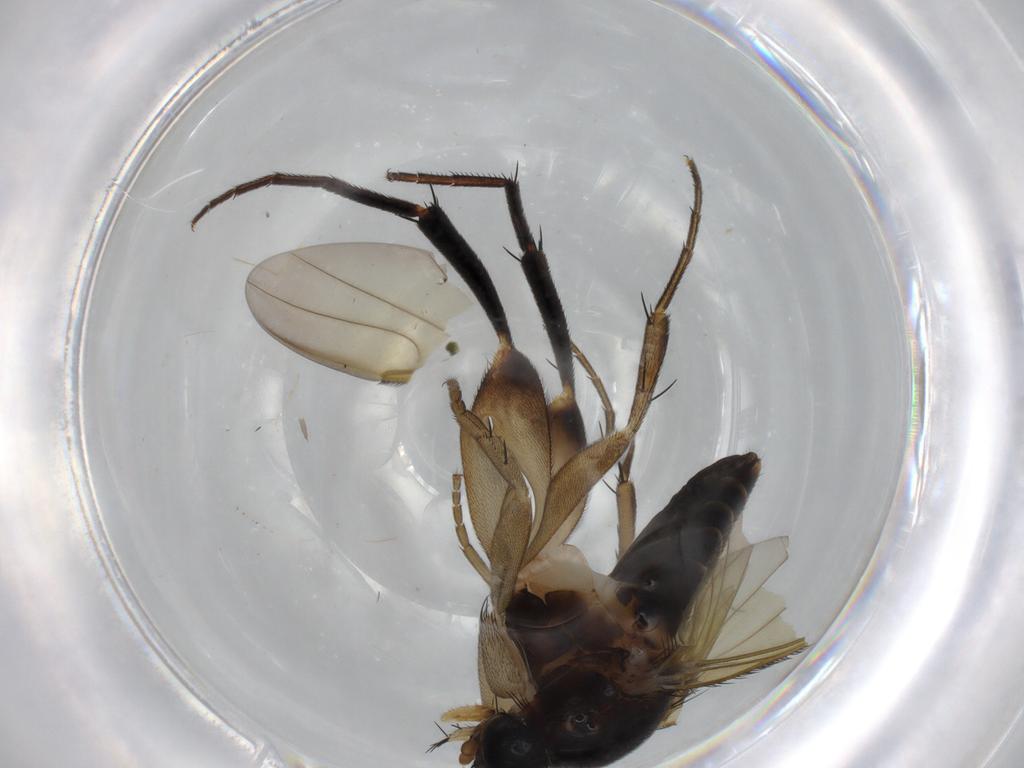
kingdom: Animalia
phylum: Arthropoda
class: Insecta
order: Diptera
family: Phoridae
